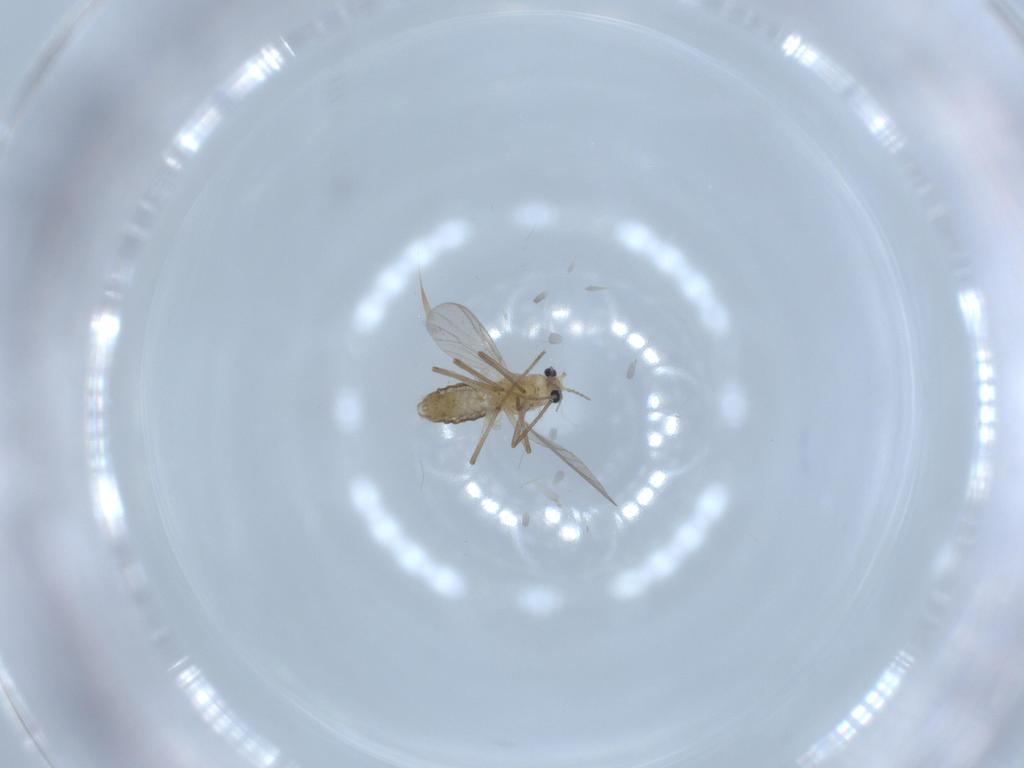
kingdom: Animalia
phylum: Arthropoda
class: Insecta
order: Diptera
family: Chironomidae
